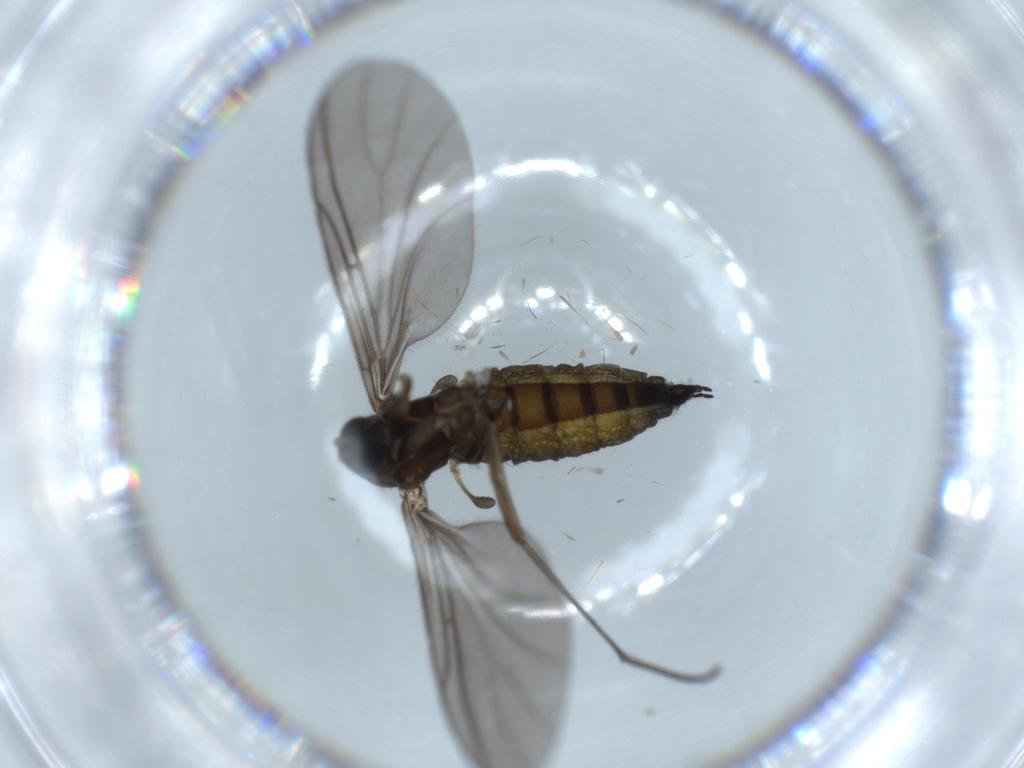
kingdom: Animalia
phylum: Arthropoda
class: Insecta
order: Diptera
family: Sciaridae
